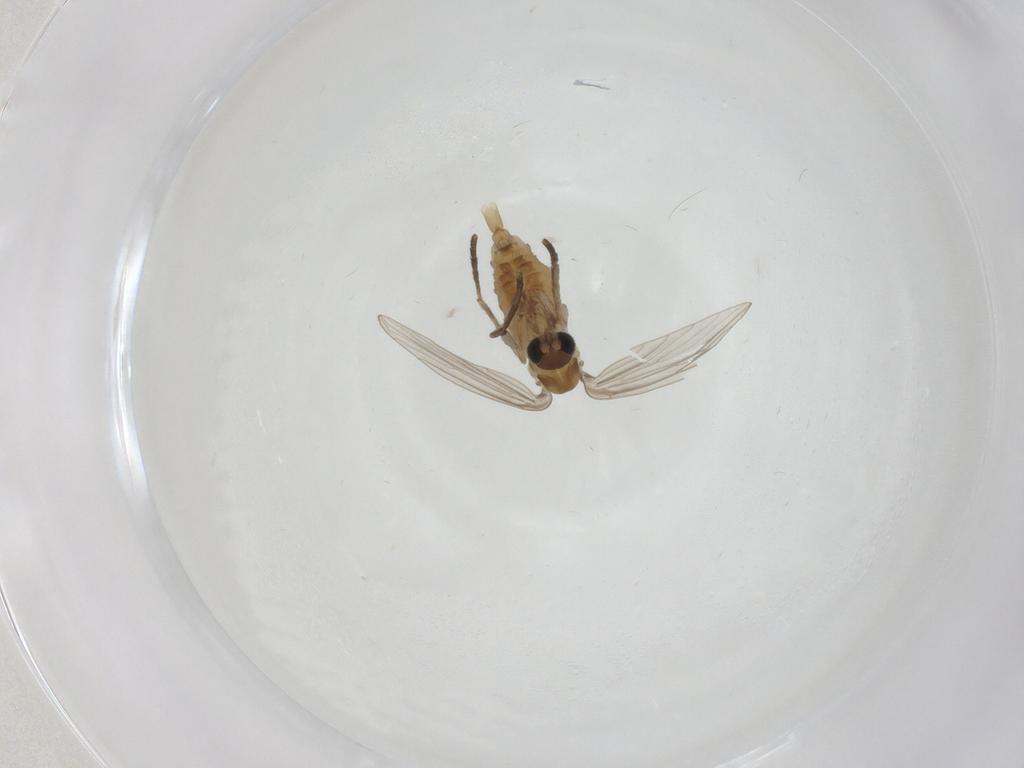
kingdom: Animalia
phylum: Arthropoda
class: Insecta
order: Diptera
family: Psychodidae
